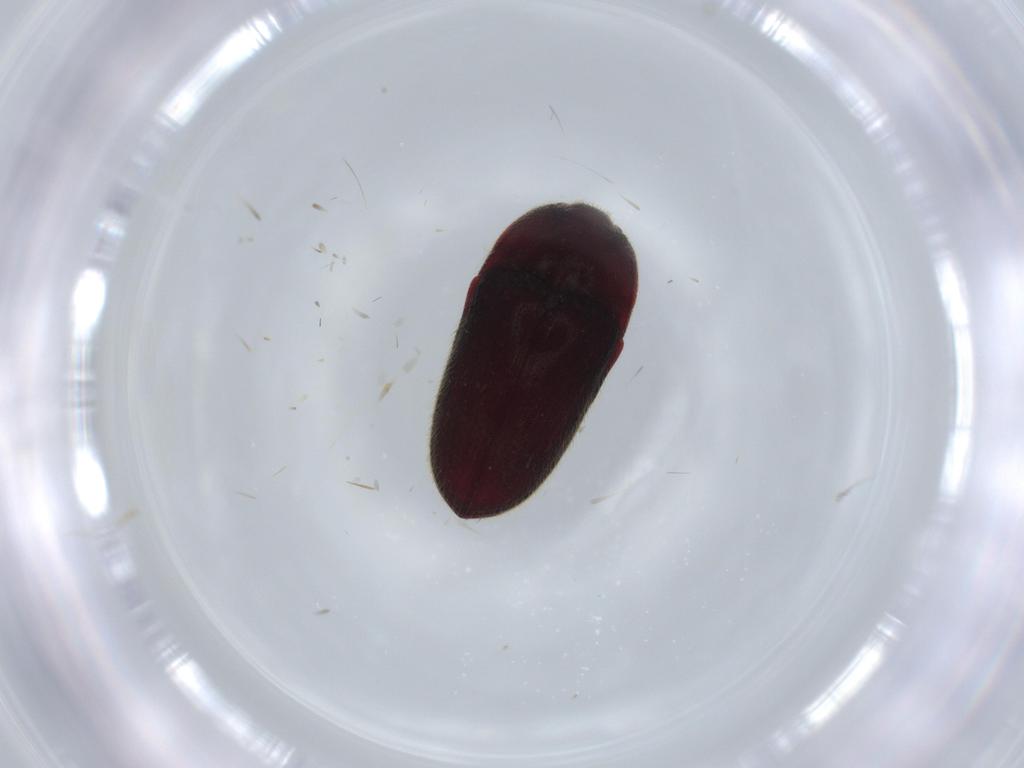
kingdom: Animalia
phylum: Arthropoda
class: Insecta
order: Coleoptera
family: Throscidae
